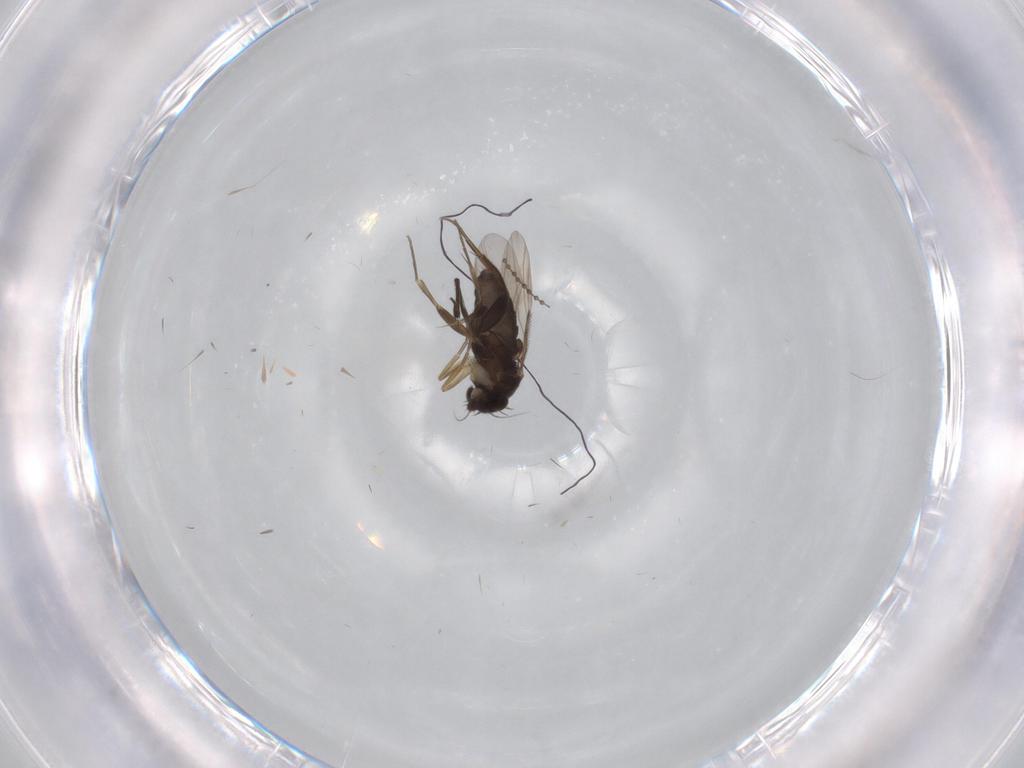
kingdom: Animalia
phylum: Arthropoda
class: Insecta
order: Diptera
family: Phoridae
